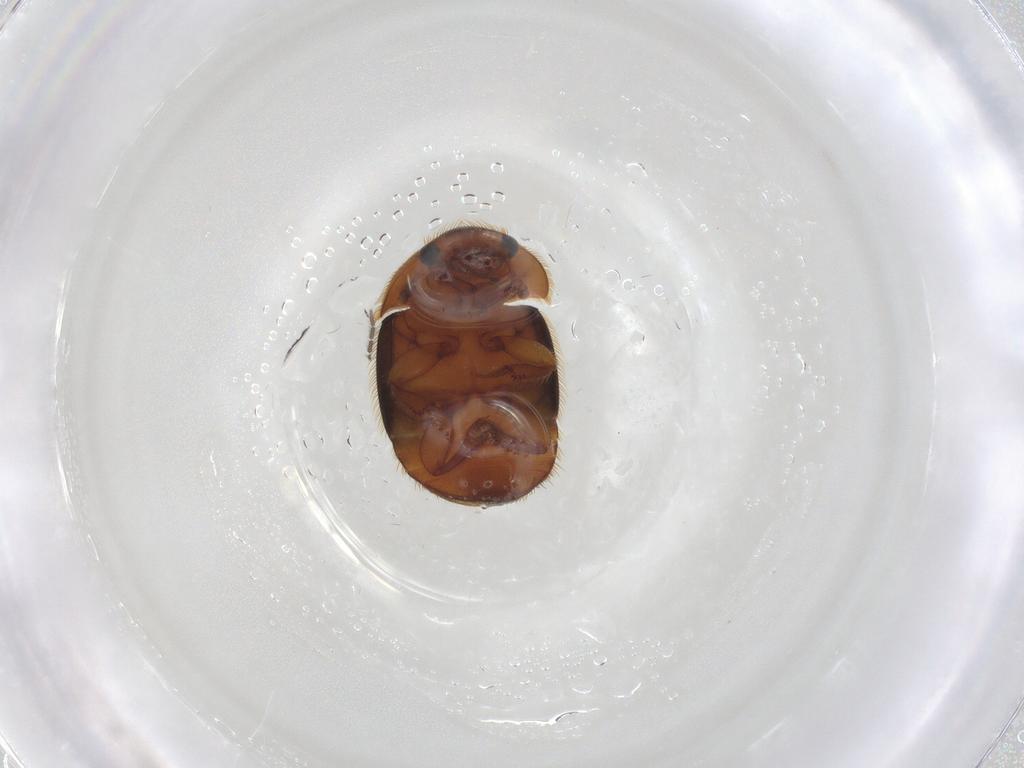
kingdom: Animalia
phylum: Arthropoda
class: Insecta
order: Coleoptera
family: Nitidulidae
